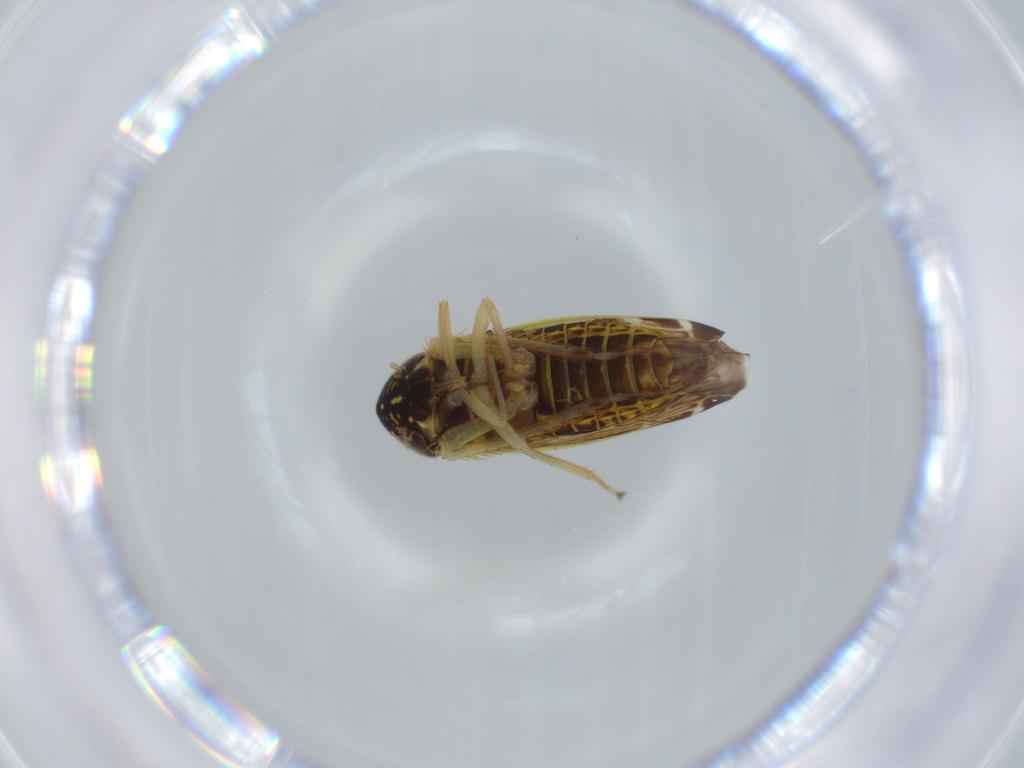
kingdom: Animalia
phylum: Arthropoda
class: Insecta
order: Hemiptera
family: Cicadellidae
